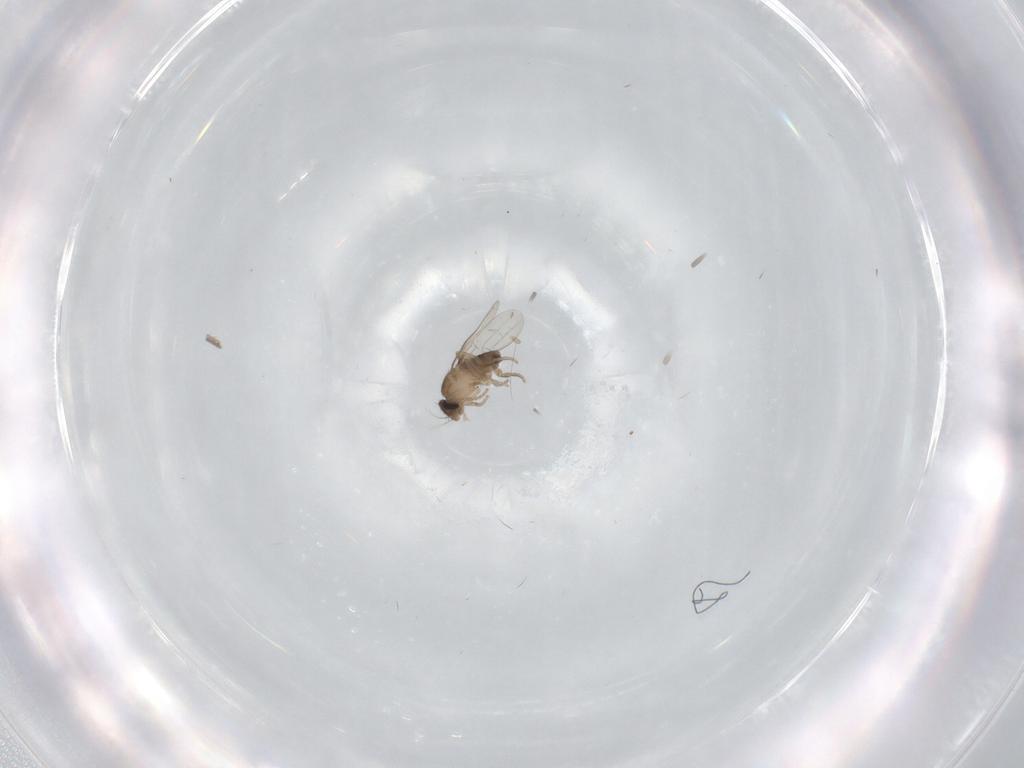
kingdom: Animalia
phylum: Arthropoda
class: Insecta
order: Diptera
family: Phoridae
